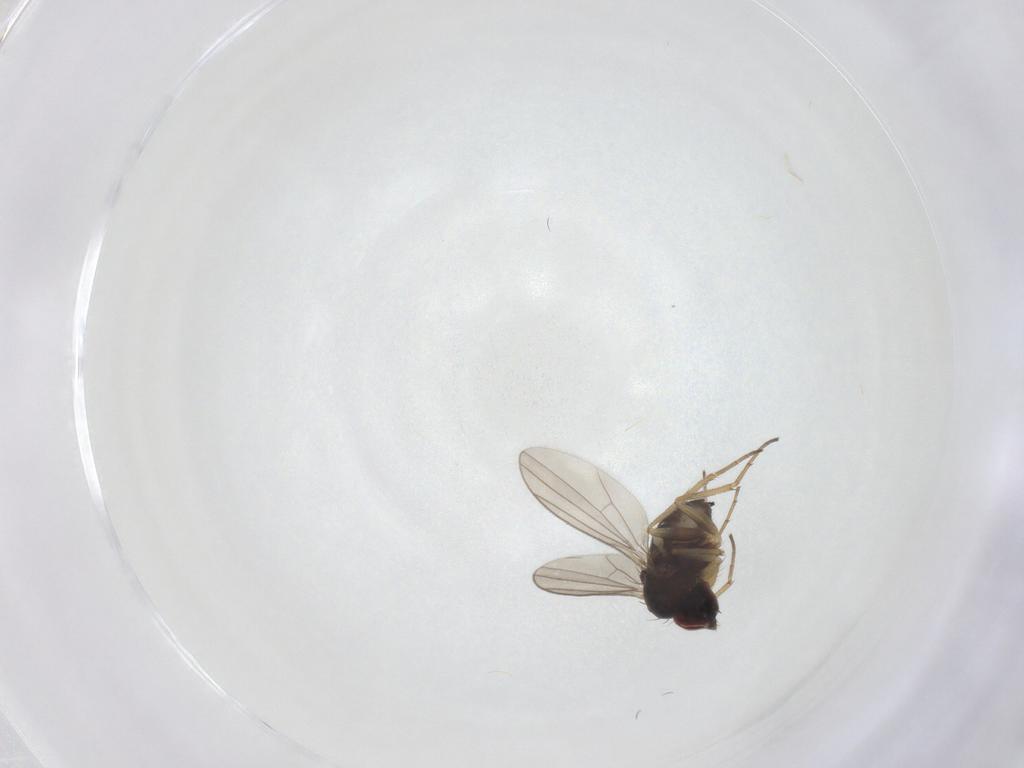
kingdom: Animalia
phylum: Arthropoda
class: Insecta
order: Diptera
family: Dolichopodidae
